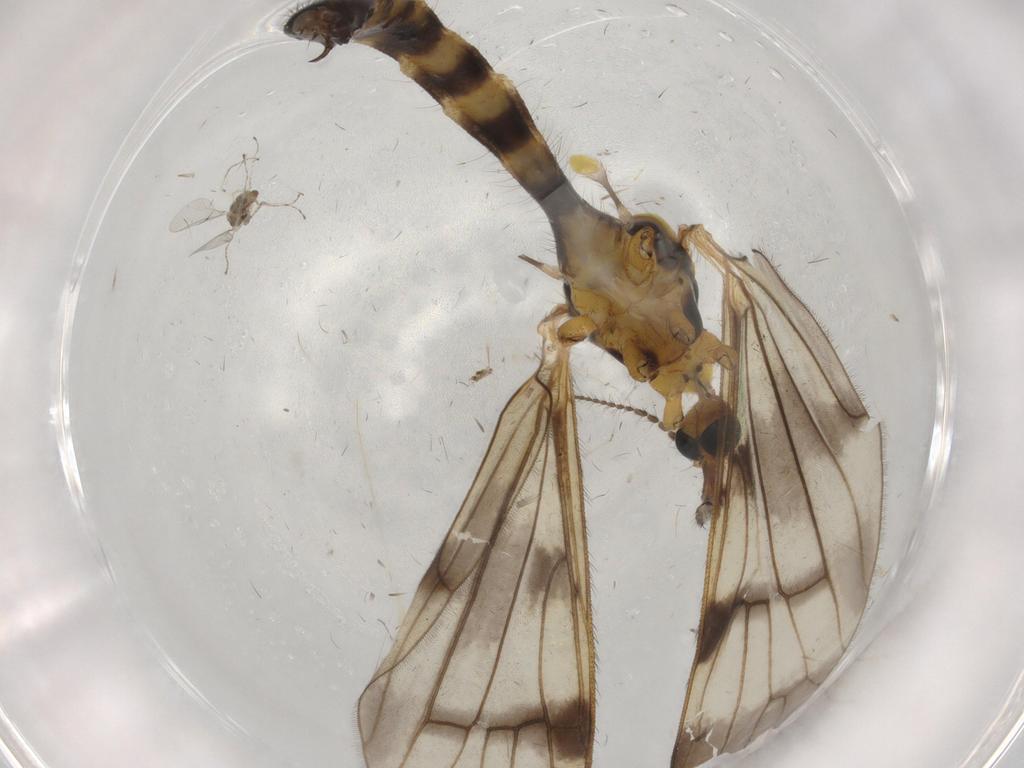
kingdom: Animalia
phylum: Arthropoda
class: Insecta
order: Diptera
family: Limoniidae
